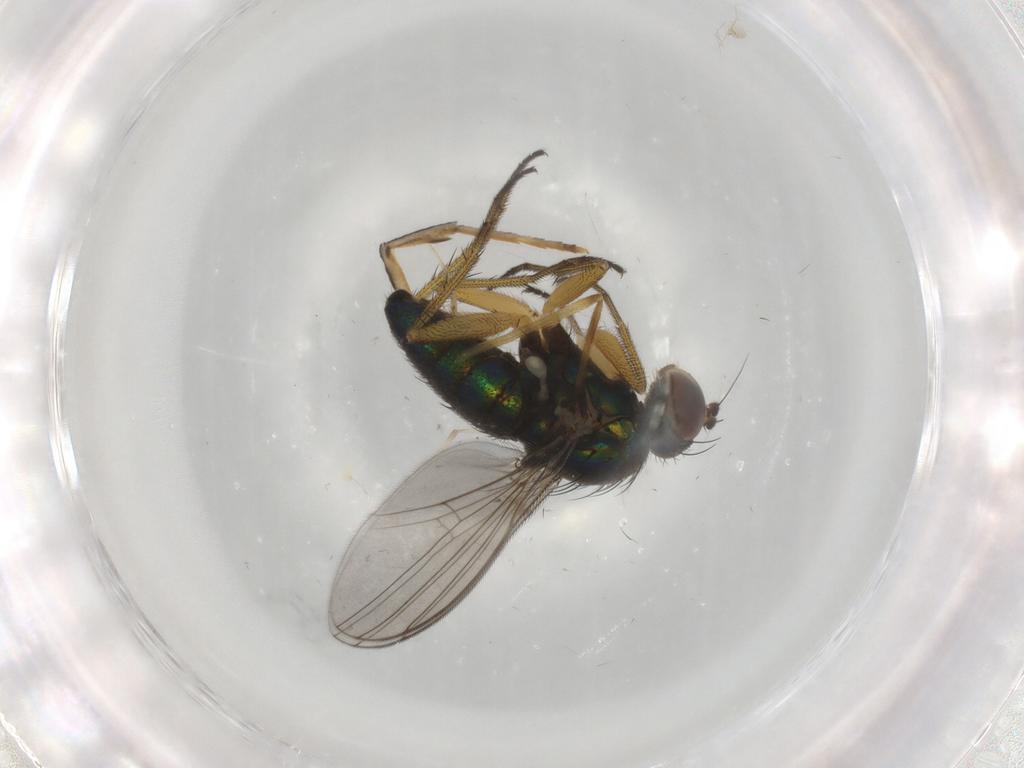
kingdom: Animalia
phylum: Arthropoda
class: Insecta
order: Diptera
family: Dolichopodidae
